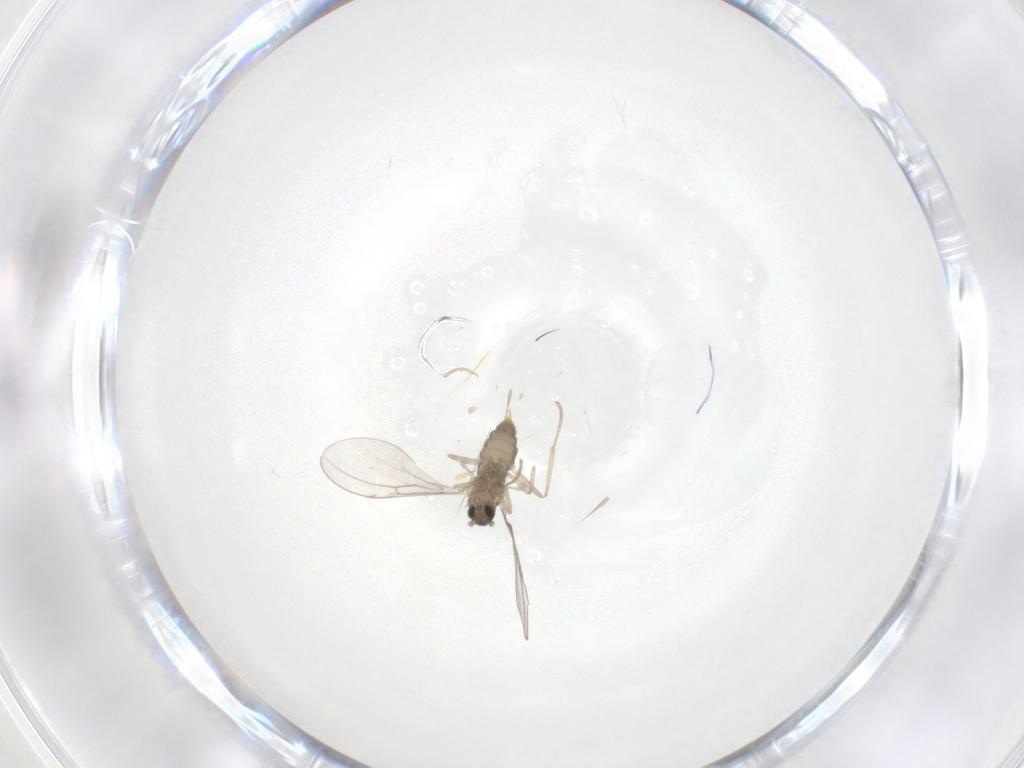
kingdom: Animalia
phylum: Arthropoda
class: Insecta
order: Diptera
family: Cecidomyiidae
